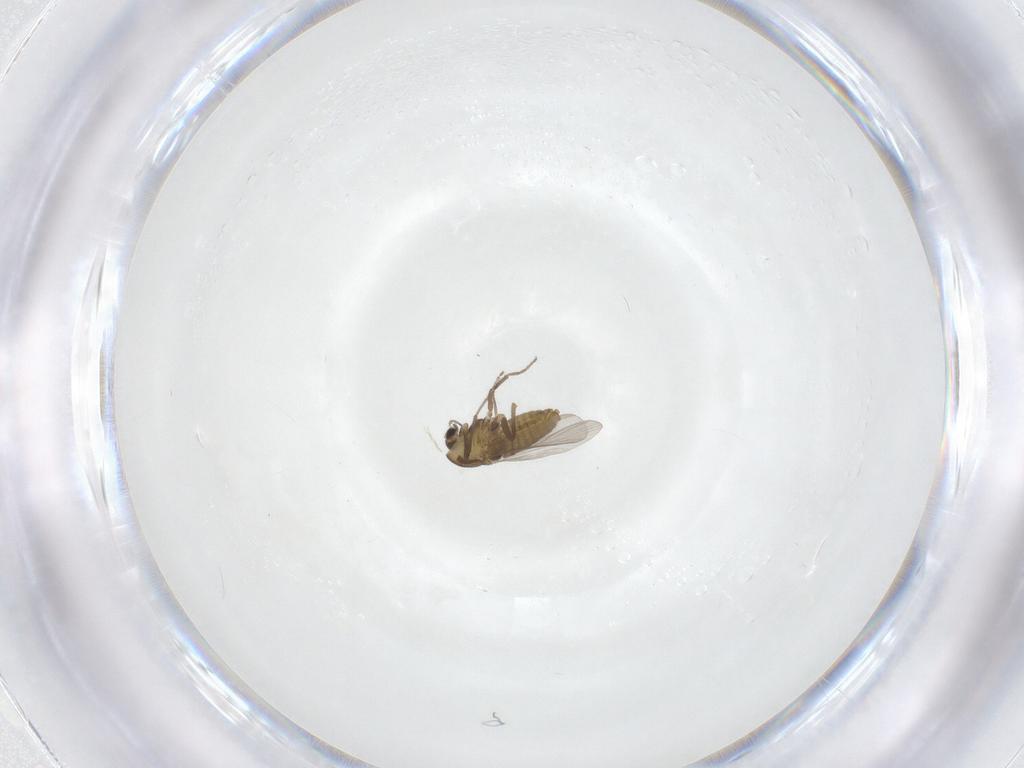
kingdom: Animalia
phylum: Arthropoda
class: Insecta
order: Diptera
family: Chironomidae
